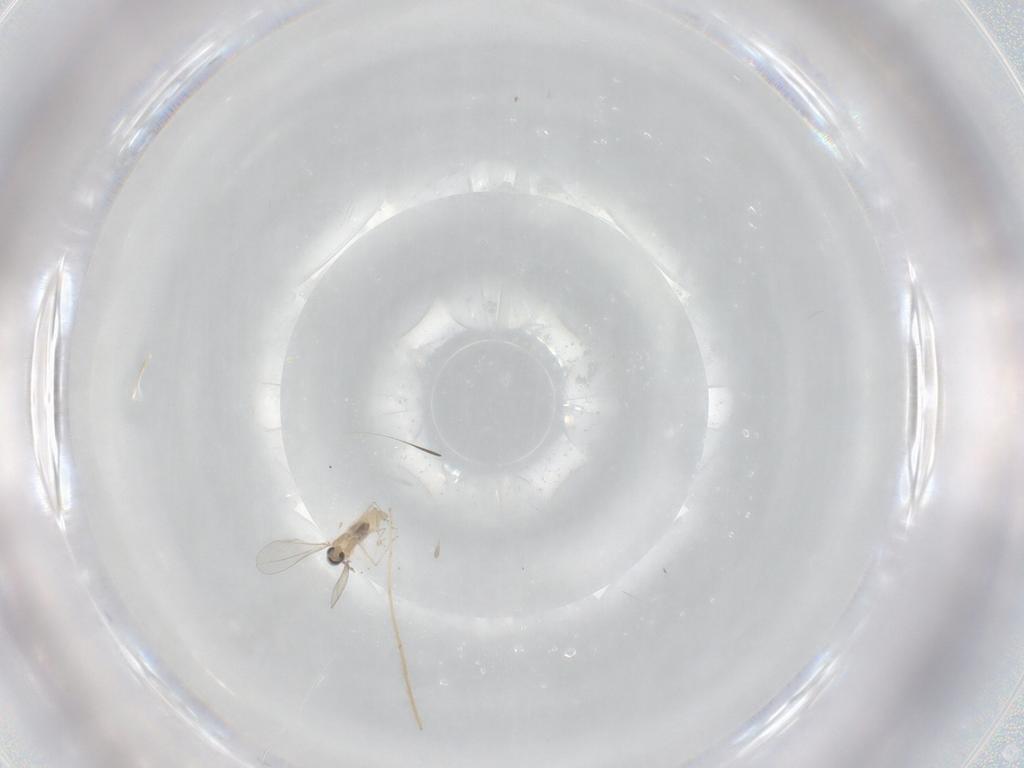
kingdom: Animalia
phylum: Arthropoda
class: Insecta
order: Diptera
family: Cecidomyiidae
